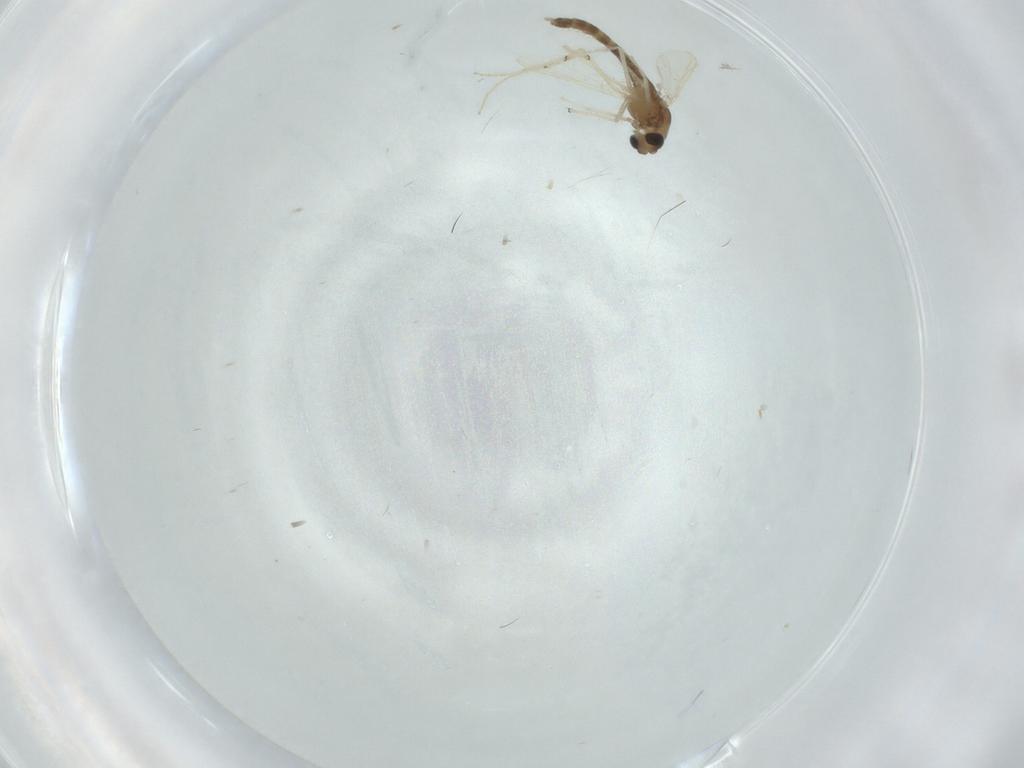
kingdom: Animalia
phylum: Arthropoda
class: Insecta
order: Diptera
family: Chironomidae
